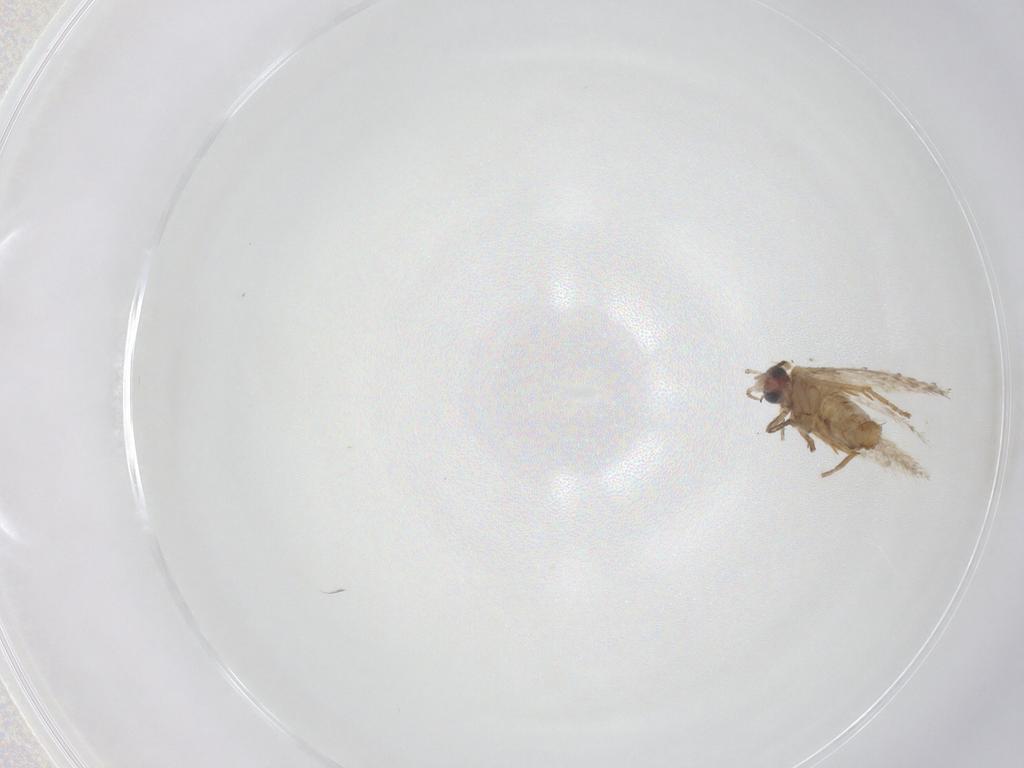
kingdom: Animalia
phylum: Arthropoda
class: Insecta
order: Lepidoptera
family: Nepticulidae
